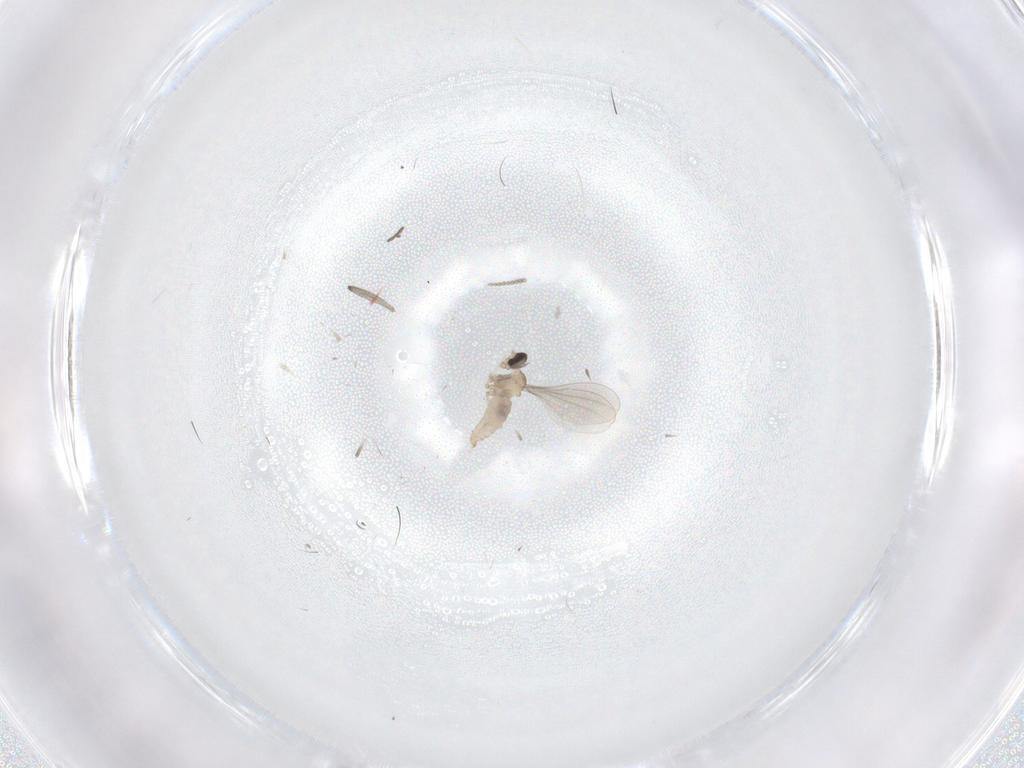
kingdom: Animalia
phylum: Arthropoda
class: Insecta
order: Diptera
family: Cecidomyiidae
